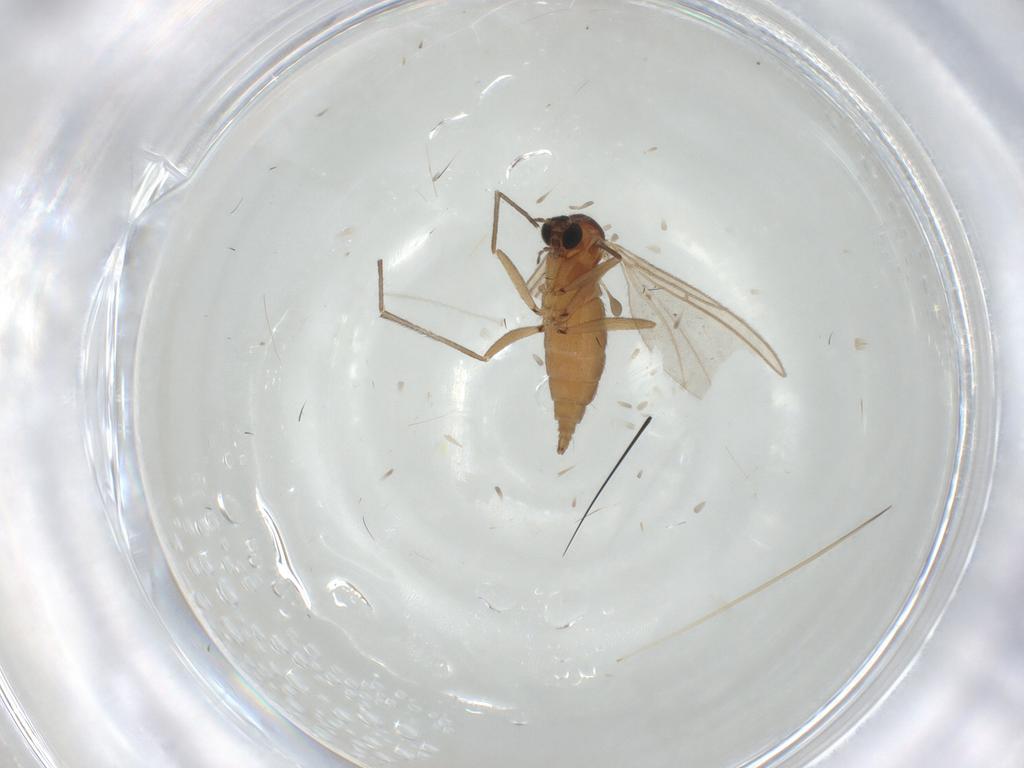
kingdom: Animalia
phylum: Arthropoda
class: Insecta
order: Diptera
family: Sciaridae
